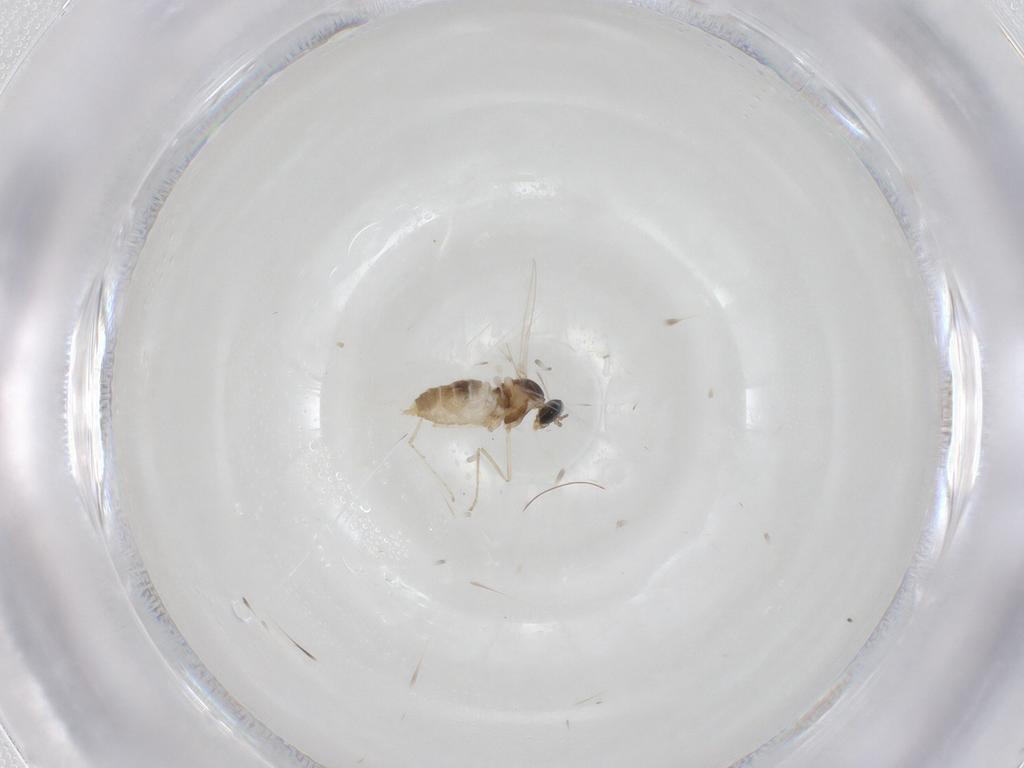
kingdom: Animalia
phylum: Arthropoda
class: Insecta
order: Diptera
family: Cecidomyiidae
